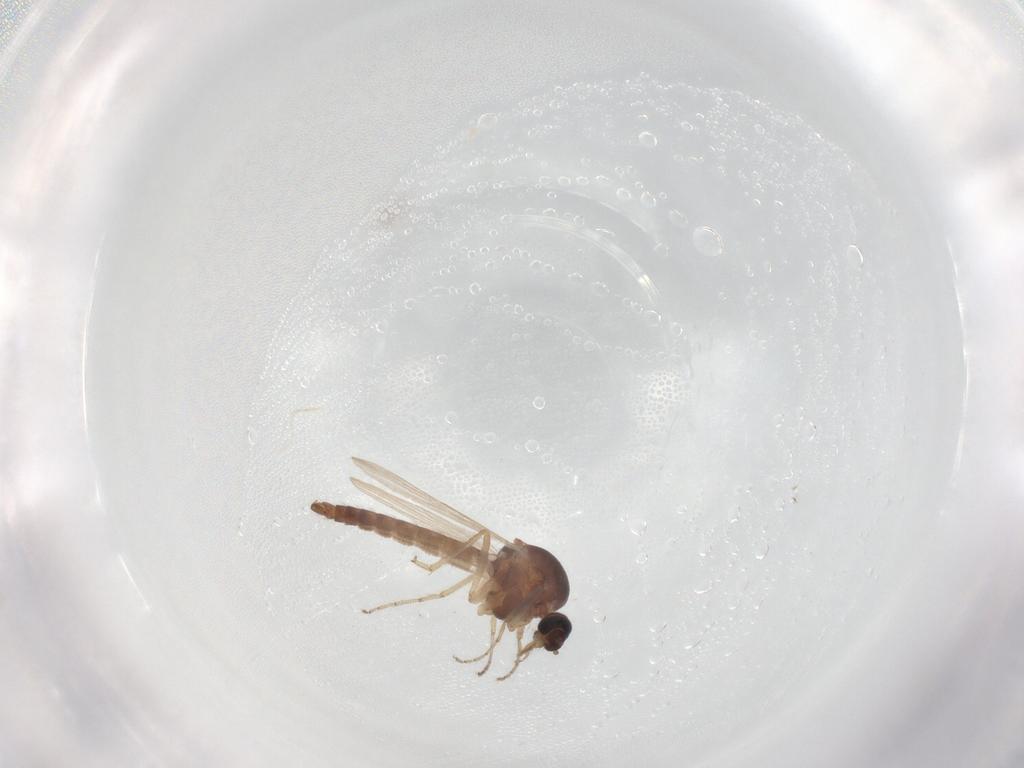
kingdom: Animalia
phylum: Arthropoda
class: Insecta
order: Diptera
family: Ceratopogonidae
